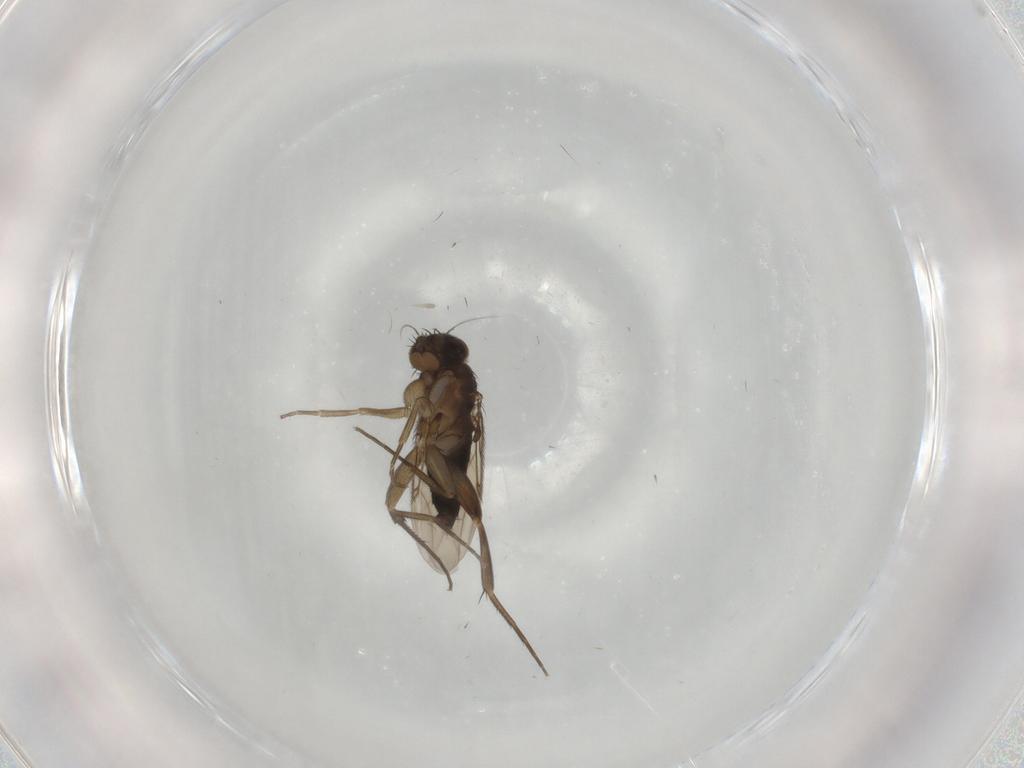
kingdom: Animalia
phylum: Arthropoda
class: Insecta
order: Diptera
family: Phoridae
